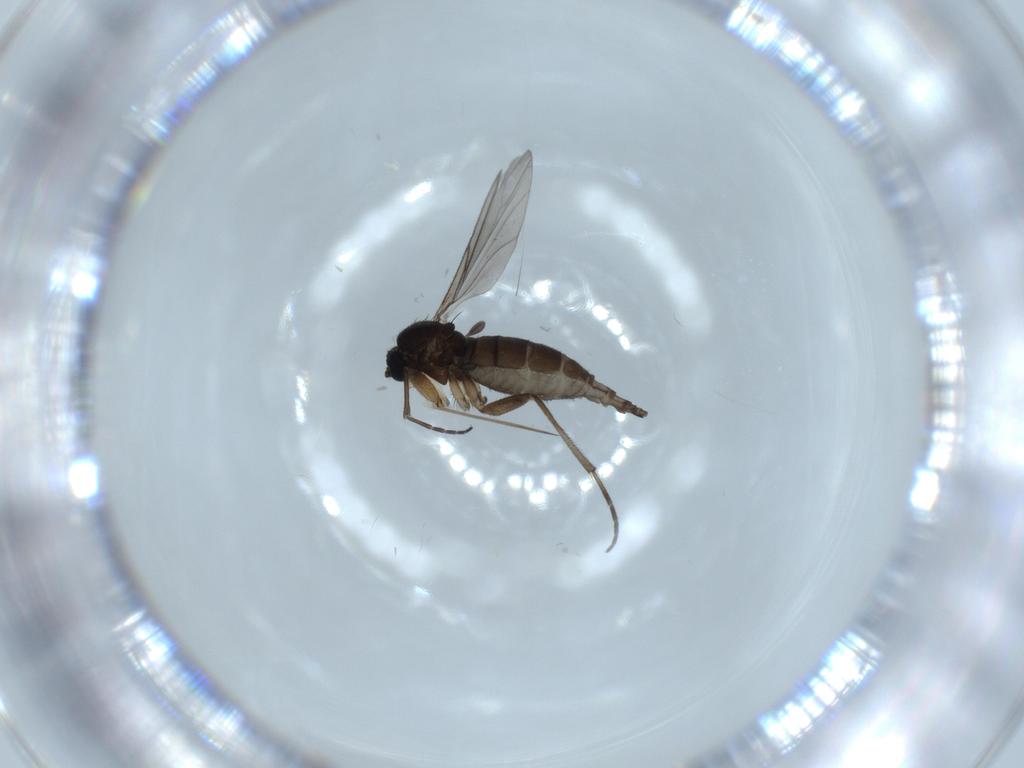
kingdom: Animalia
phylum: Arthropoda
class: Insecta
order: Diptera
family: Sciaridae
